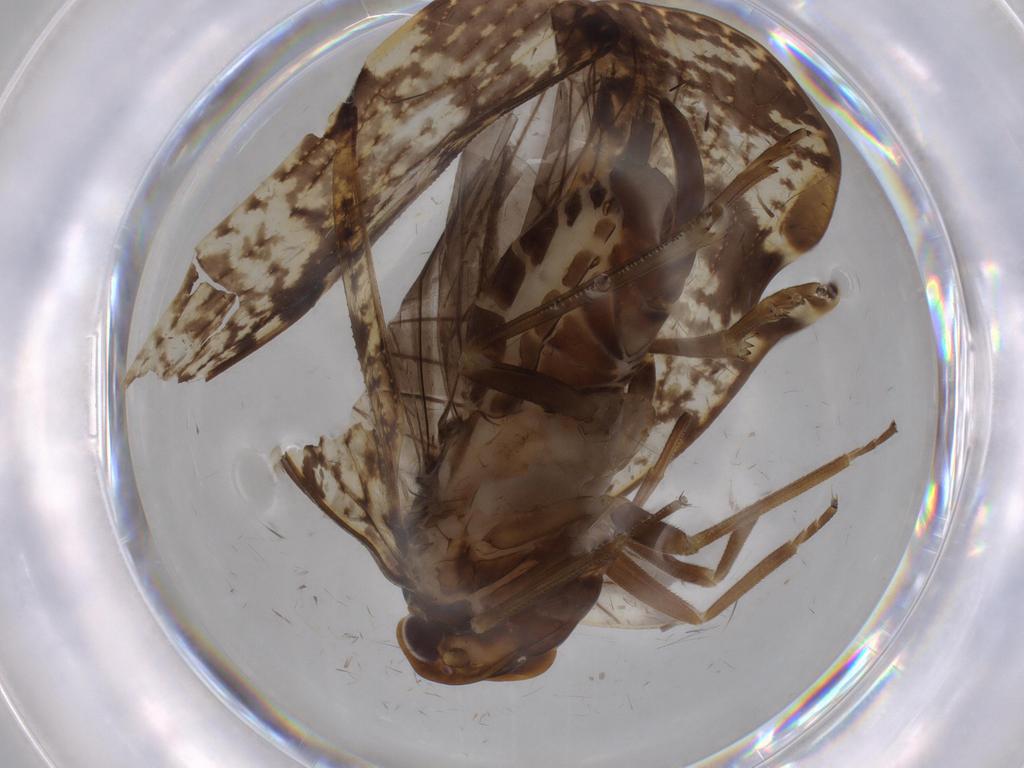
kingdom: Animalia
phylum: Arthropoda
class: Insecta
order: Hemiptera
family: Cixiidae
